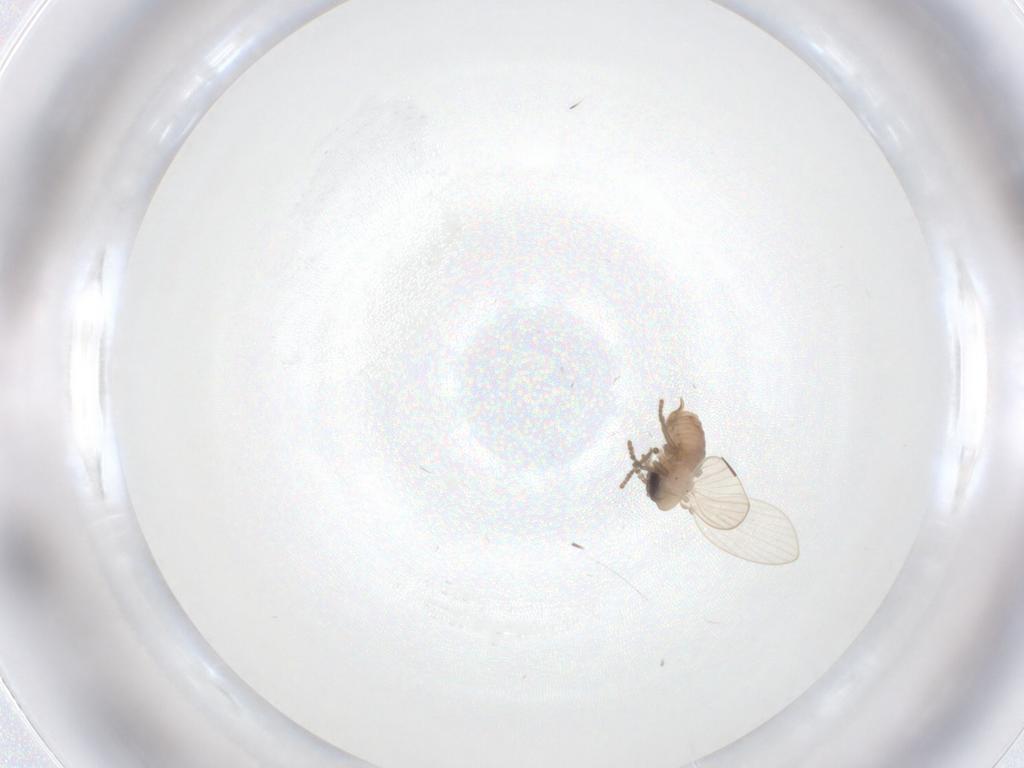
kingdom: Animalia
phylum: Arthropoda
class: Insecta
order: Diptera
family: Psychodidae
